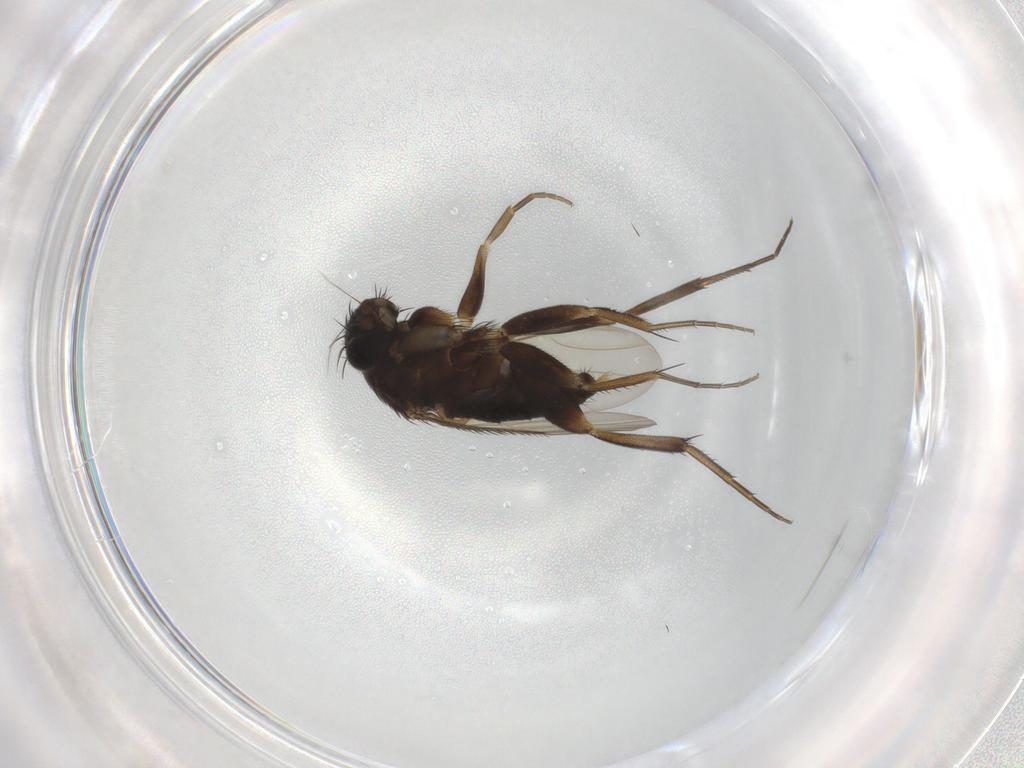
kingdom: Animalia
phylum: Arthropoda
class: Insecta
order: Diptera
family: Phoridae
